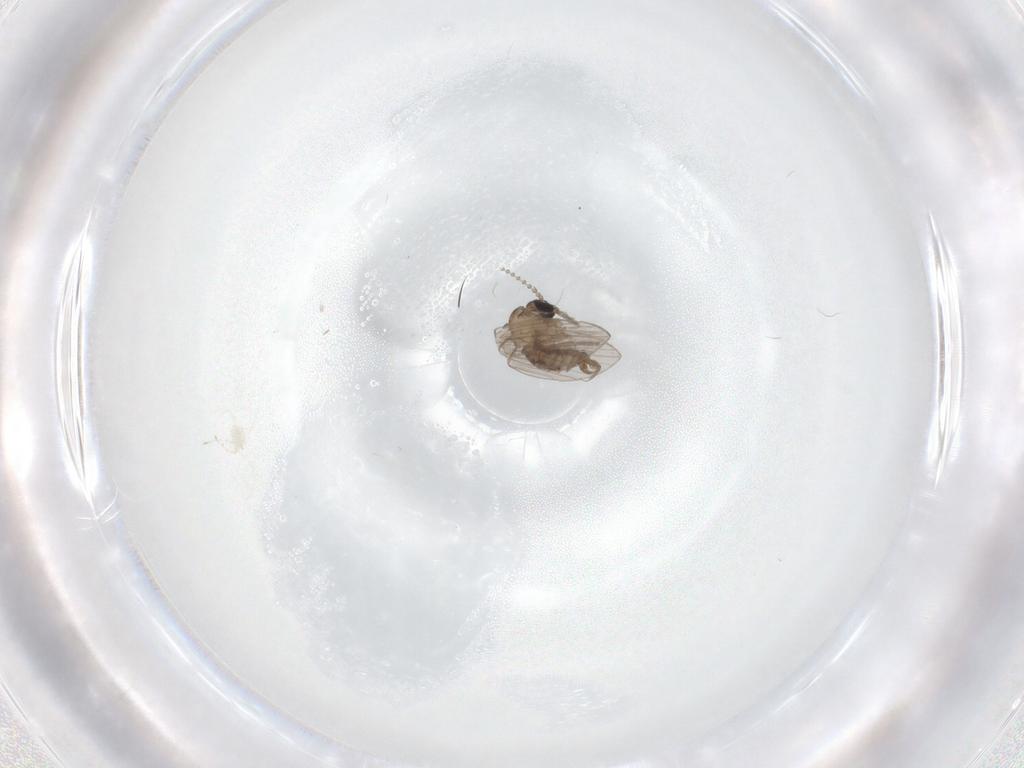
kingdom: Animalia
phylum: Arthropoda
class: Insecta
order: Diptera
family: Psychodidae
